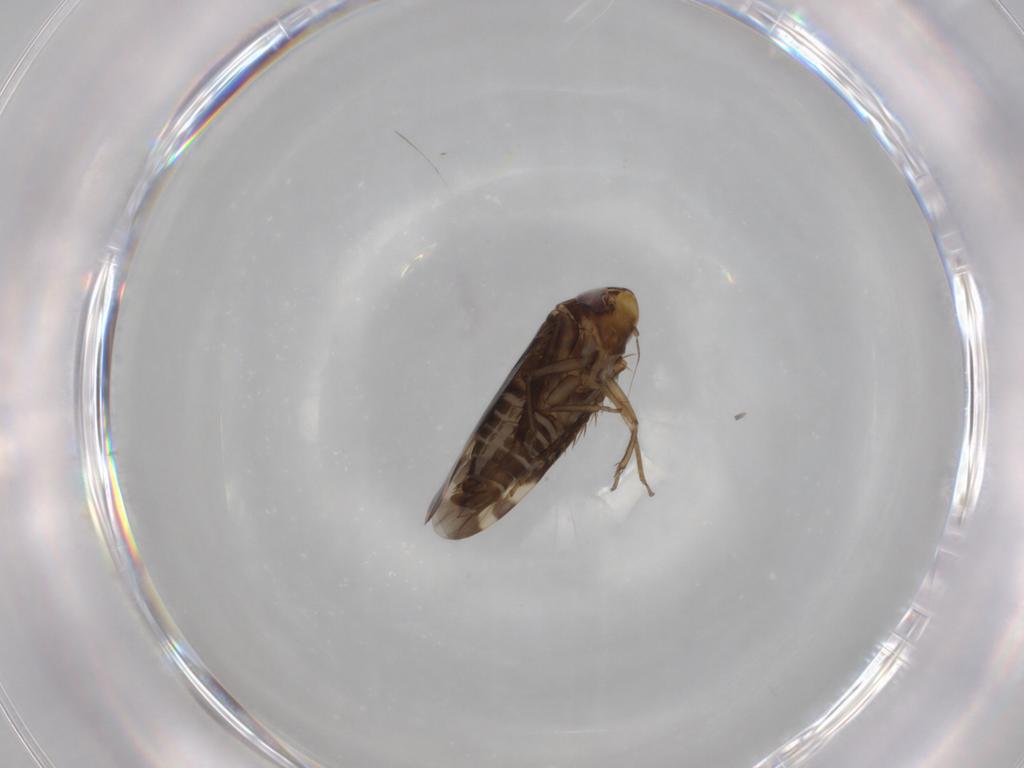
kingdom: Animalia
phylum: Arthropoda
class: Insecta
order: Hemiptera
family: Cicadellidae
